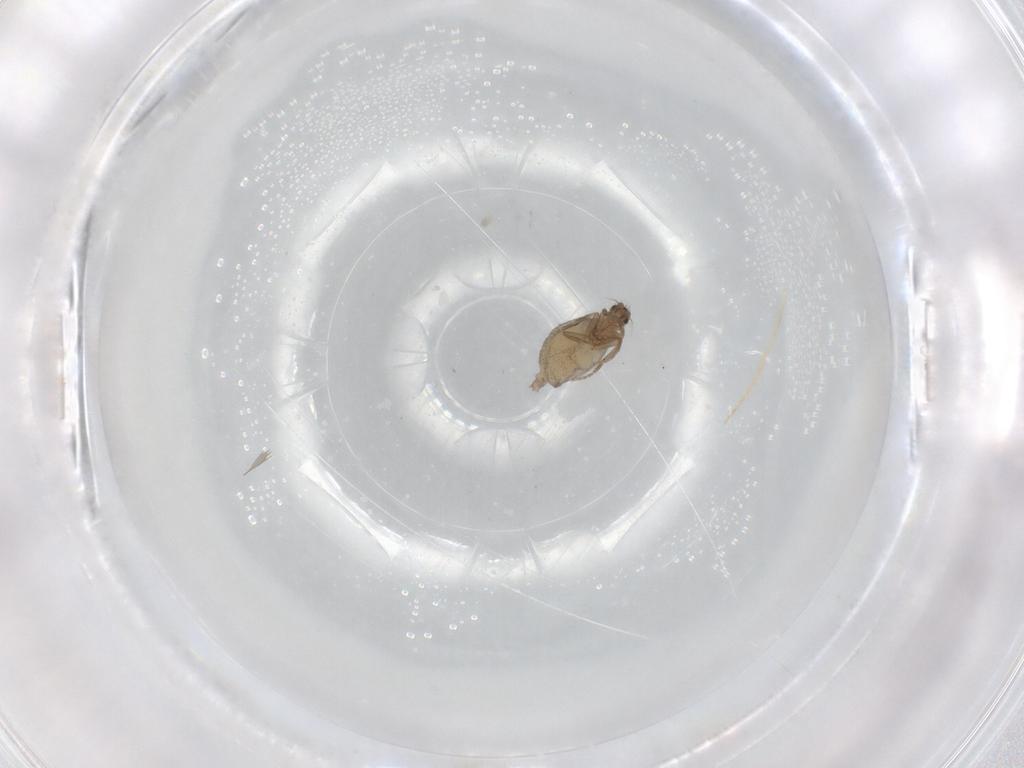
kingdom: Animalia
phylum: Arthropoda
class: Insecta
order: Diptera
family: Phoridae
